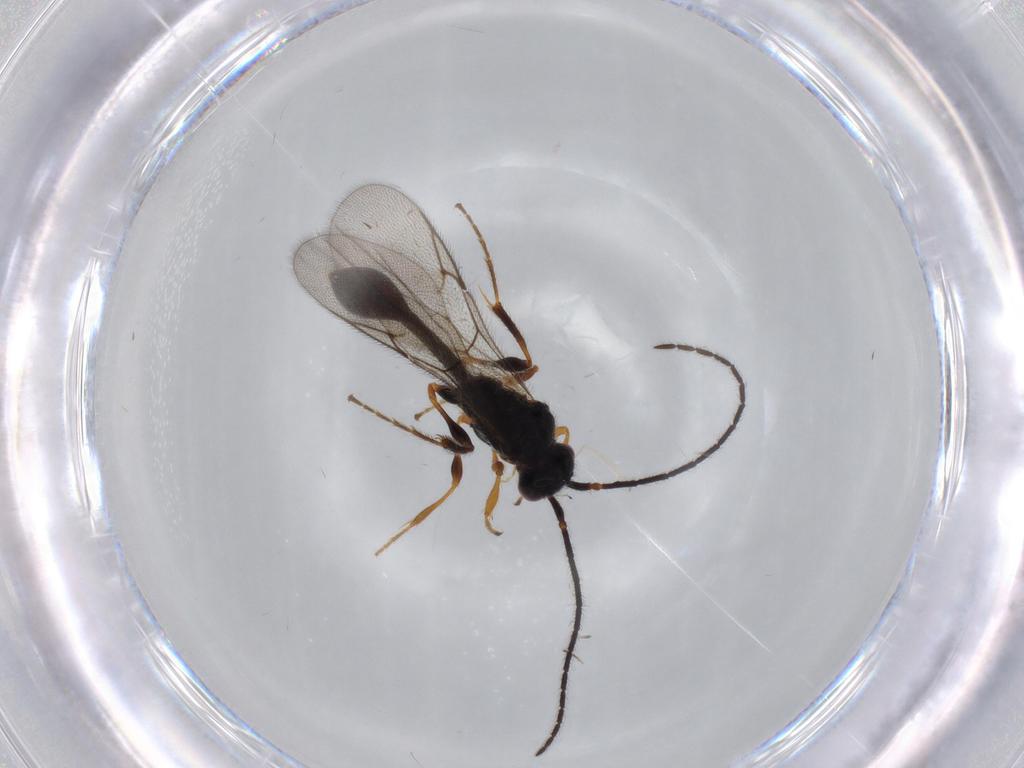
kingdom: Animalia
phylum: Arthropoda
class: Insecta
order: Hymenoptera
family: Diapriidae
